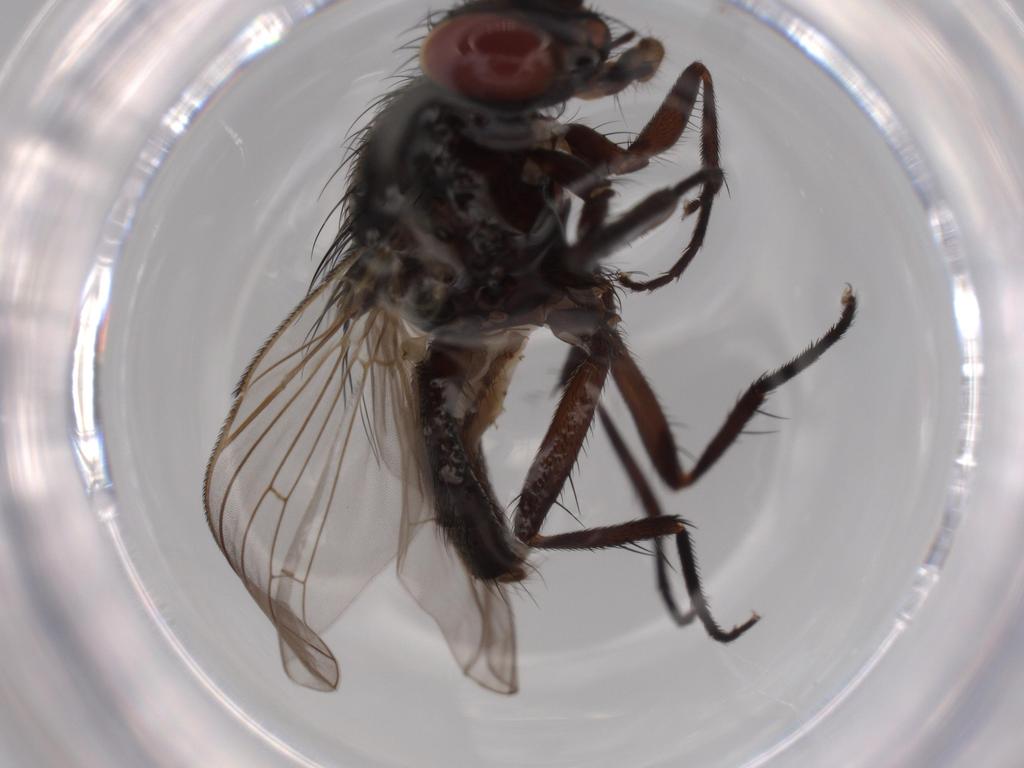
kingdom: Animalia
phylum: Arthropoda
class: Insecta
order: Diptera
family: Fannia
